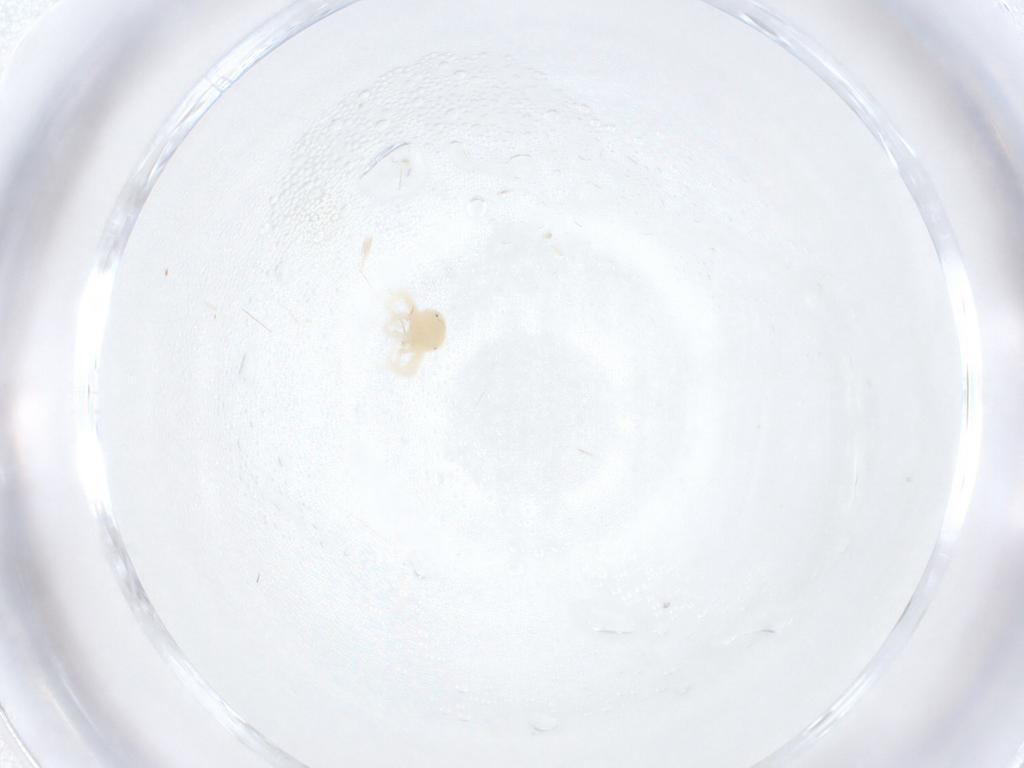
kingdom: Animalia
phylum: Arthropoda
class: Arachnida
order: Trombidiformes
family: Anystidae
